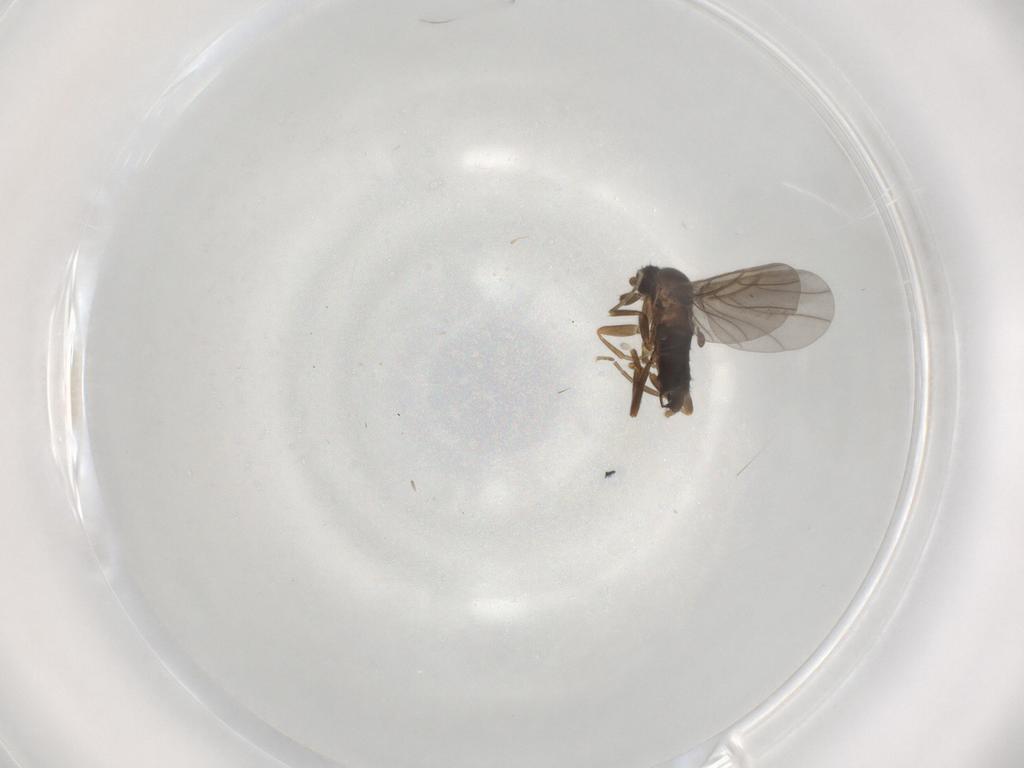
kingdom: Animalia
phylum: Arthropoda
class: Insecta
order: Diptera
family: Phoridae
